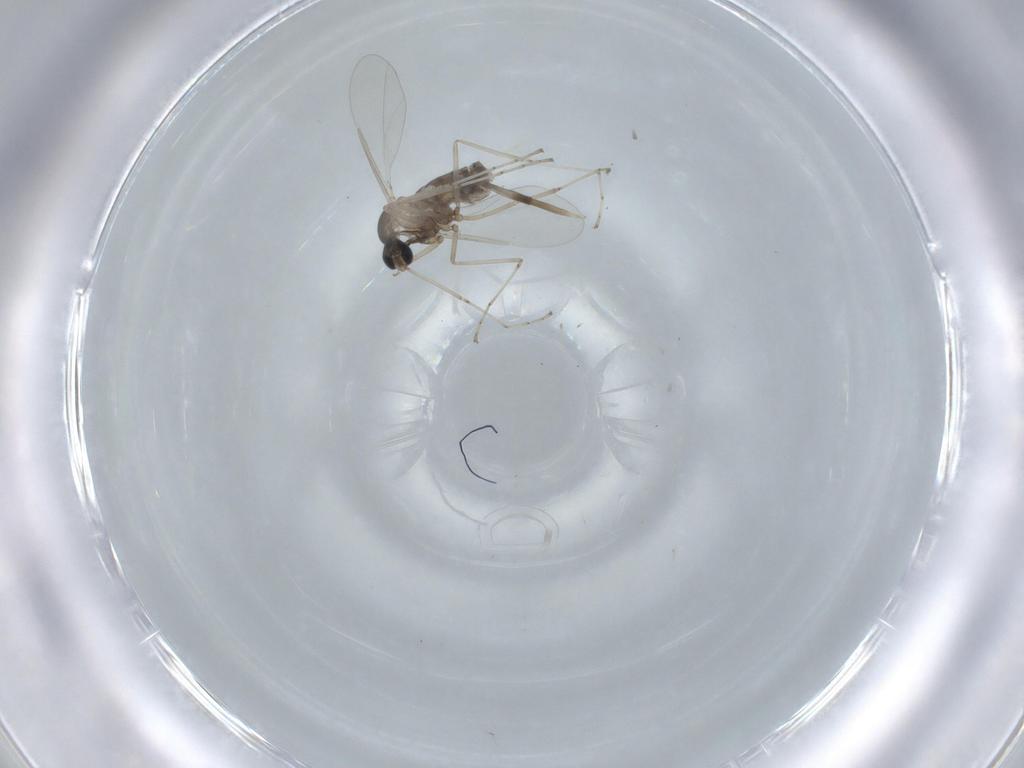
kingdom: Animalia
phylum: Arthropoda
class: Insecta
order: Diptera
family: Cecidomyiidae
